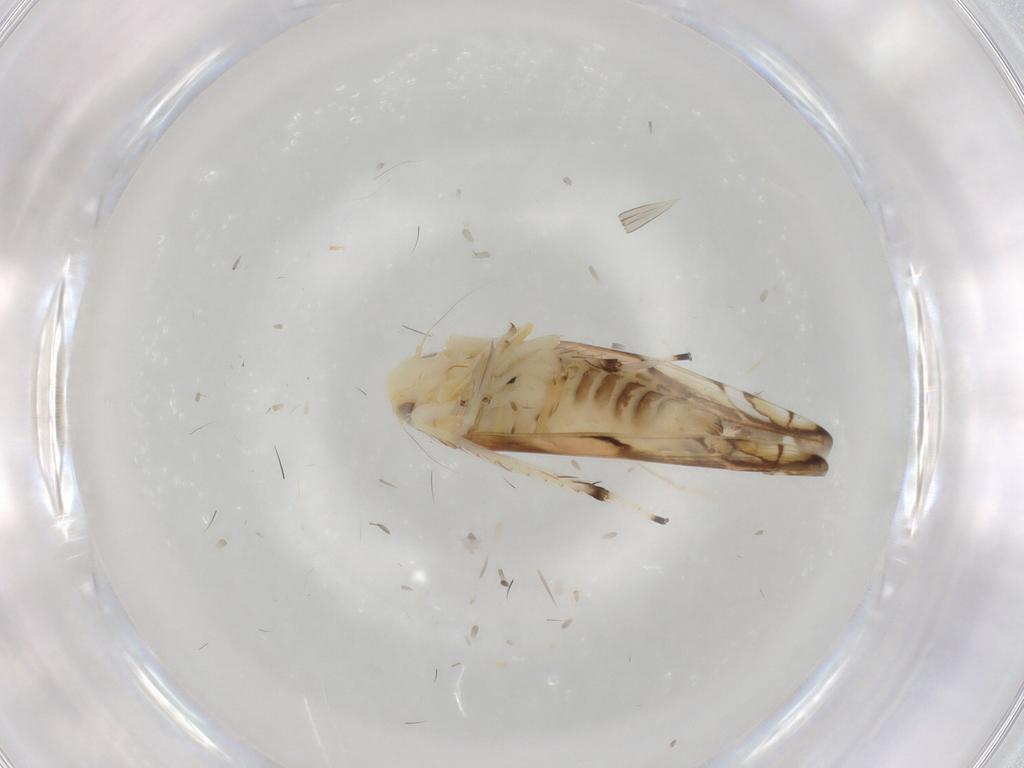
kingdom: Animalia
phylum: Arthropoda
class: Insecta
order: Hemiptera
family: Cicadellidae
